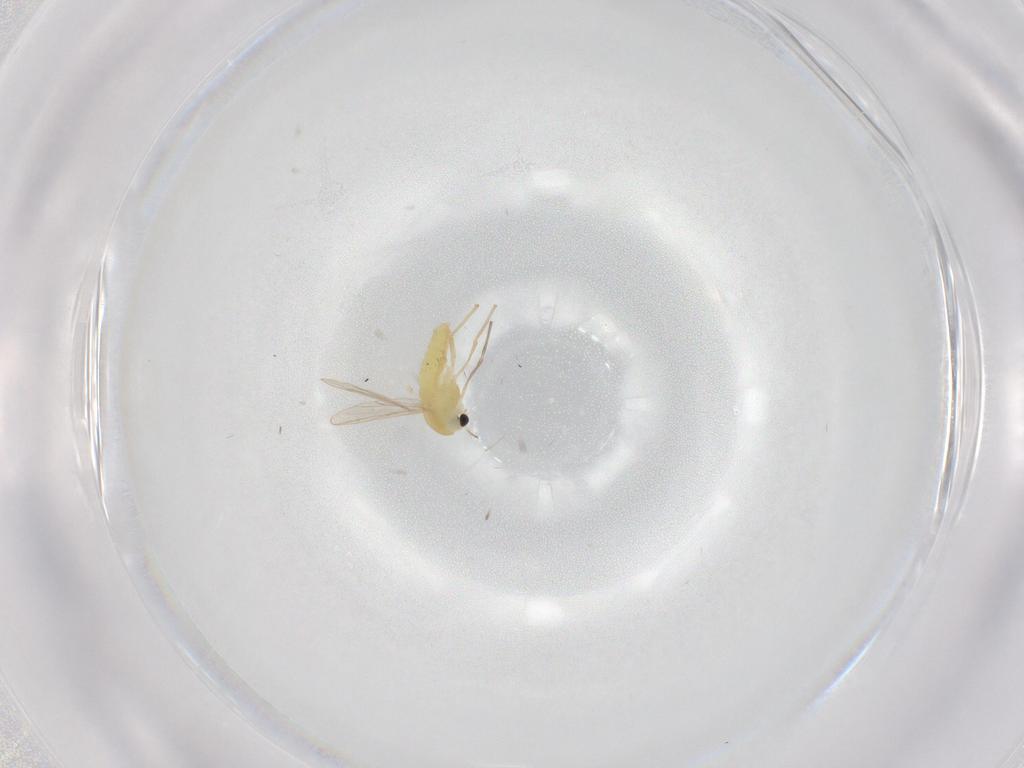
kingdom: Animalia
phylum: Arthropoda
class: Insecta
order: Diptera
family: Chironomidae
